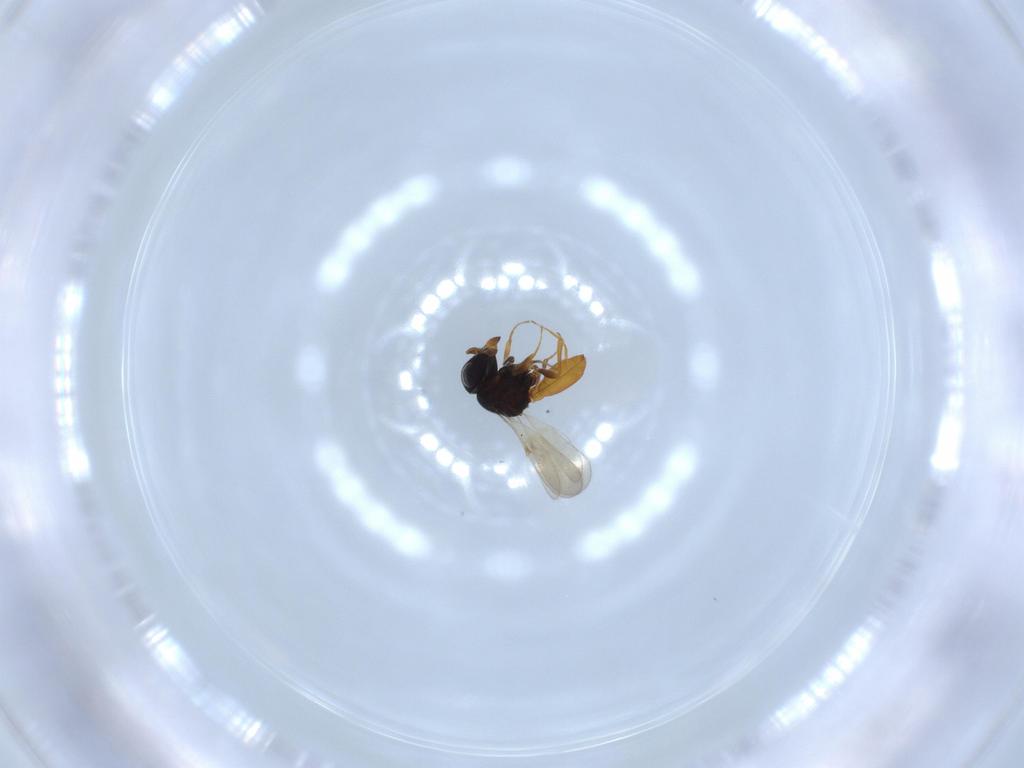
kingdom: Animalia
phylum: Arthropoda
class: Insecta
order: Hymenoptera
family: Scelionidae
